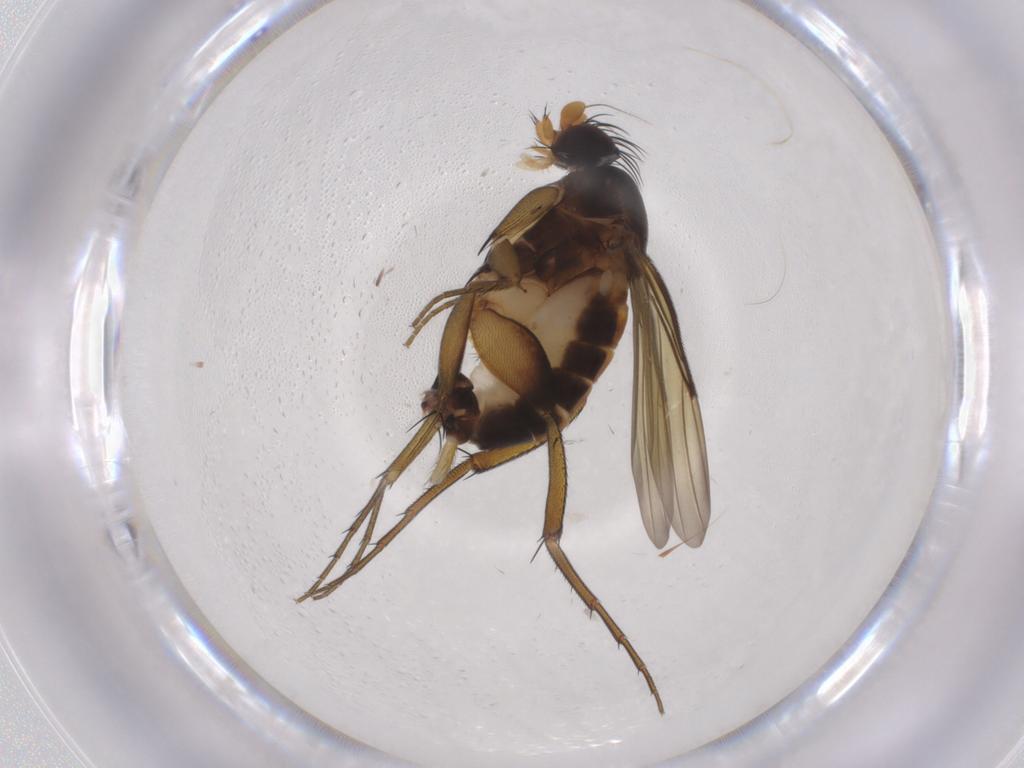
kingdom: Animalia
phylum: Arthropoda
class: Insecta
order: Diptera
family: Phoridae
